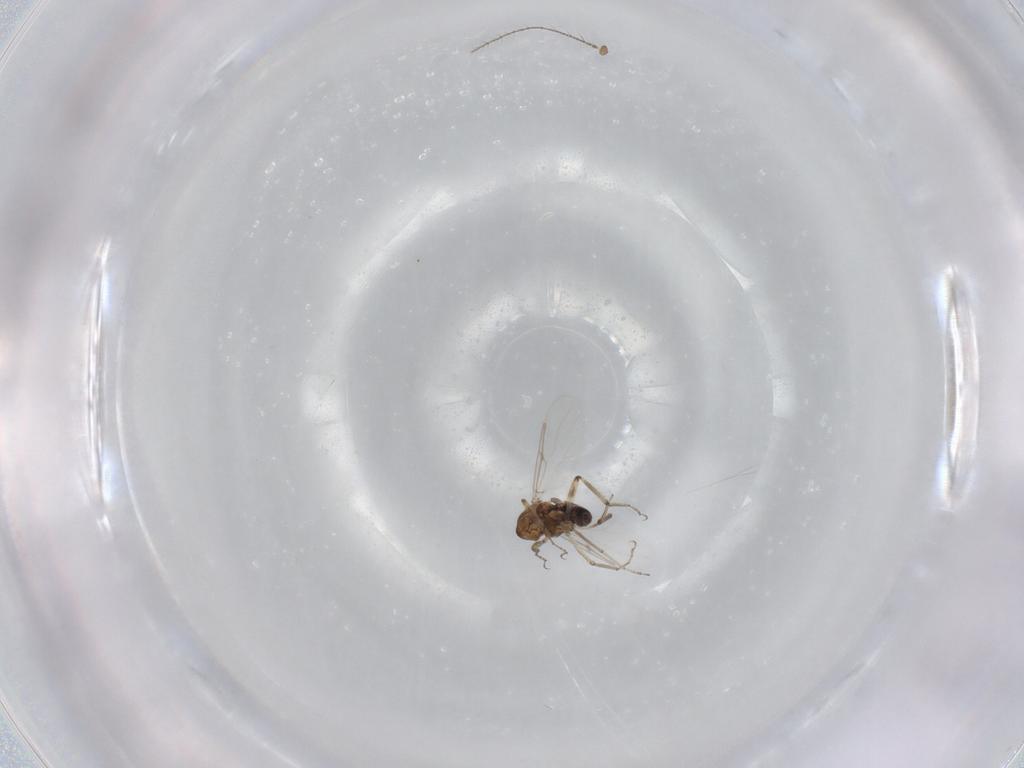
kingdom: Animalia
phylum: Arthropoda
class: Insecta
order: Diptera
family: Ceratopogonidae
